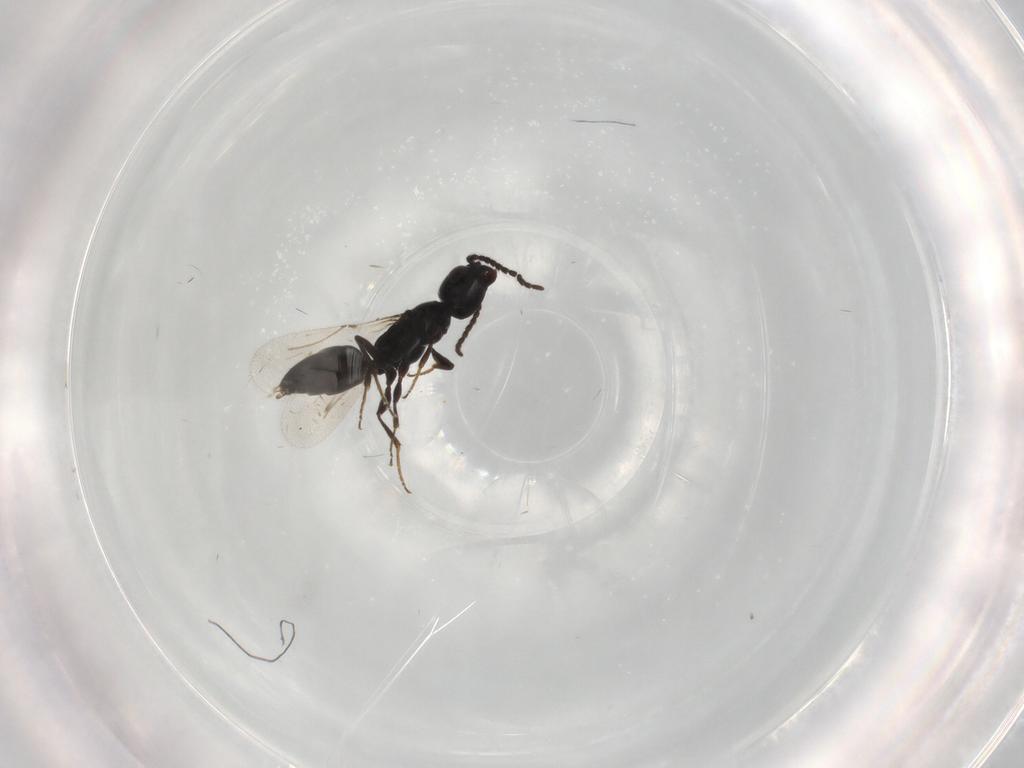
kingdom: Animalia
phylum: Arthropoda
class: Insecta
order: Hymenoptera
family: Bethylidae
